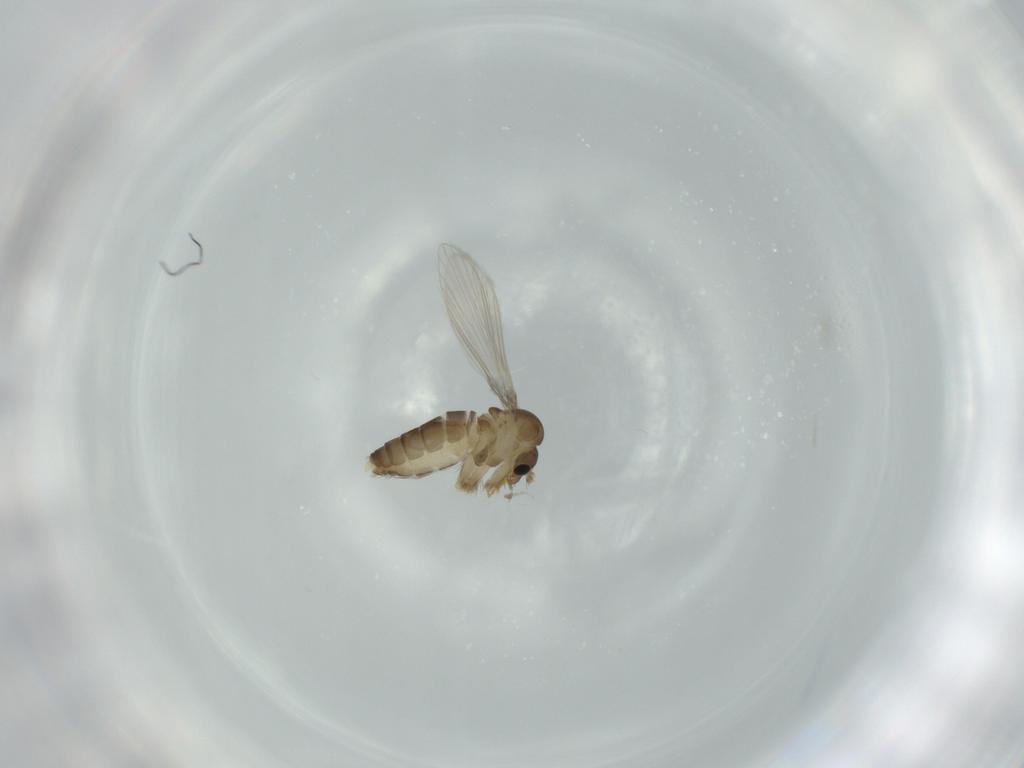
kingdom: Animalia
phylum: Arthropoda
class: Insecta
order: Diptera
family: Psychodidae
